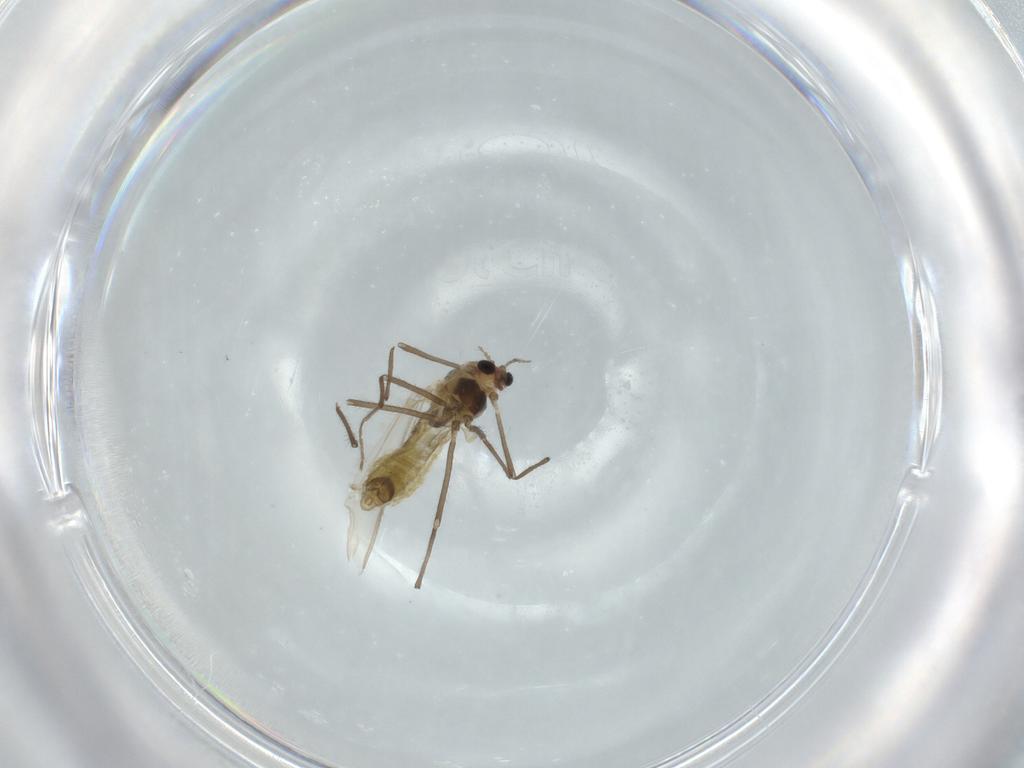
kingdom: Animalia
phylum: Arthropoda
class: Insecta
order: Diptera
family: Chironomidae
